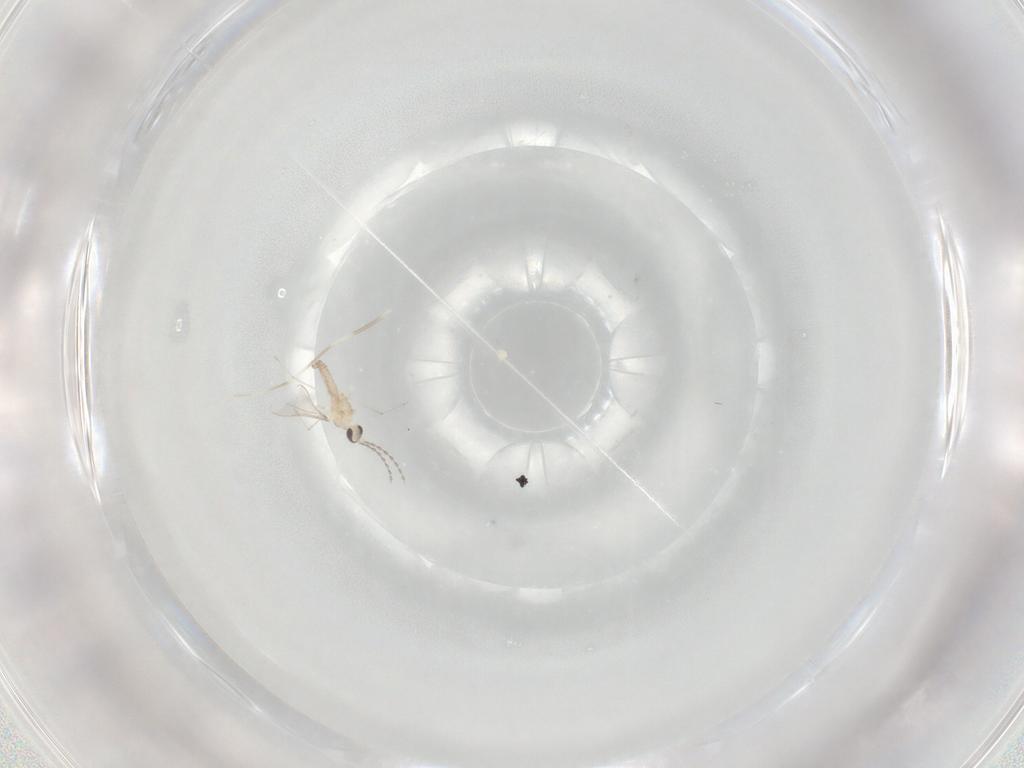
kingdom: Animalia
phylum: Arthropoda
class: Insecta
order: Diptera
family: Cecidomyiidae
